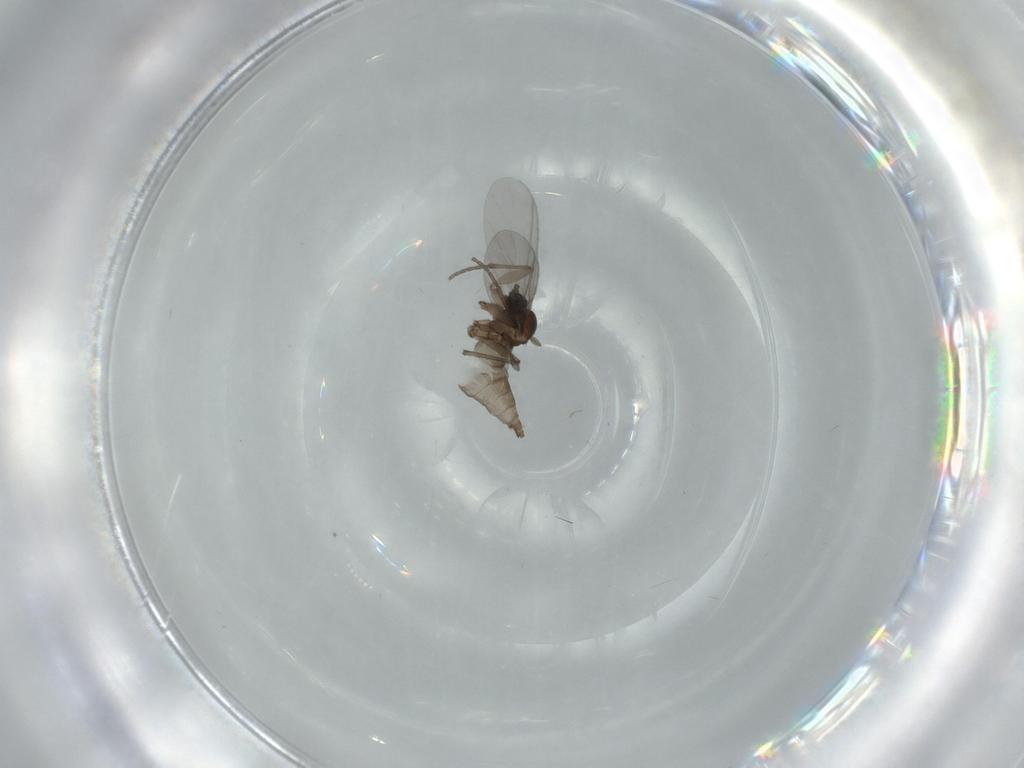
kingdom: Animalia
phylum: Arthropoda
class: Insecta
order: Diptera
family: Sciaridae
